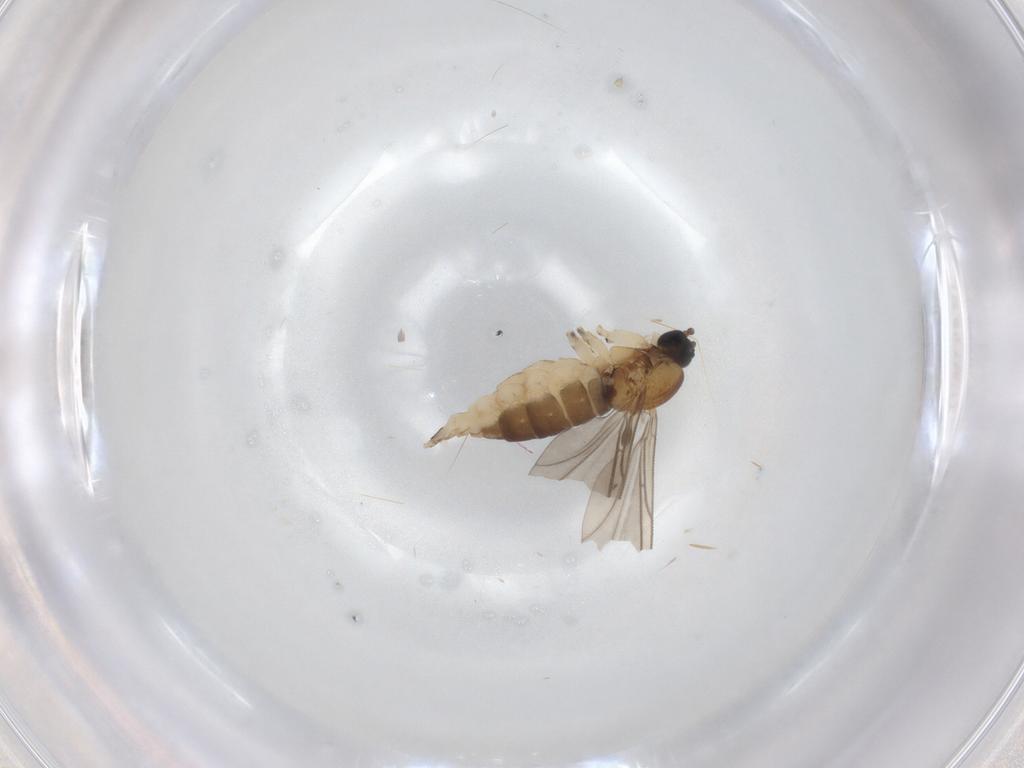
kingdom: Animalia
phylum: Arthropoda
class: Insecta
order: Diptera
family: Sciaridae
